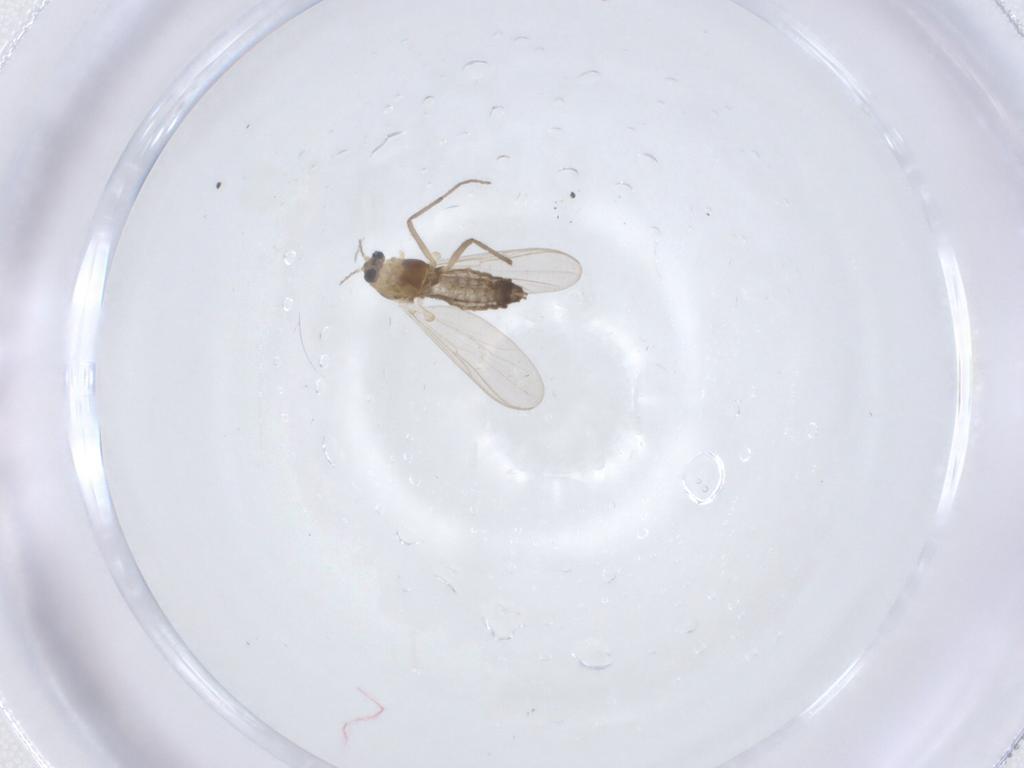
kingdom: Animalia
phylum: Arthropoda
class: Insecta
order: Diptera
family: Chironomidae
